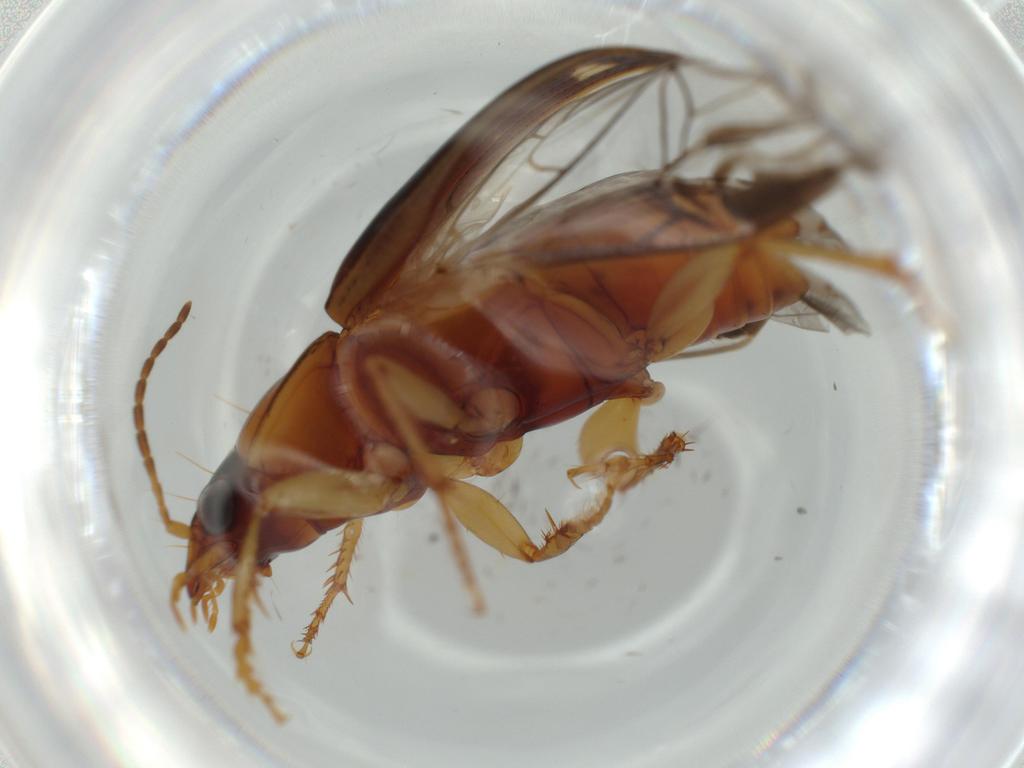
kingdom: Animalia
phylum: Arthropoda
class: Insecta
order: Coleoptera
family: Carabidae
